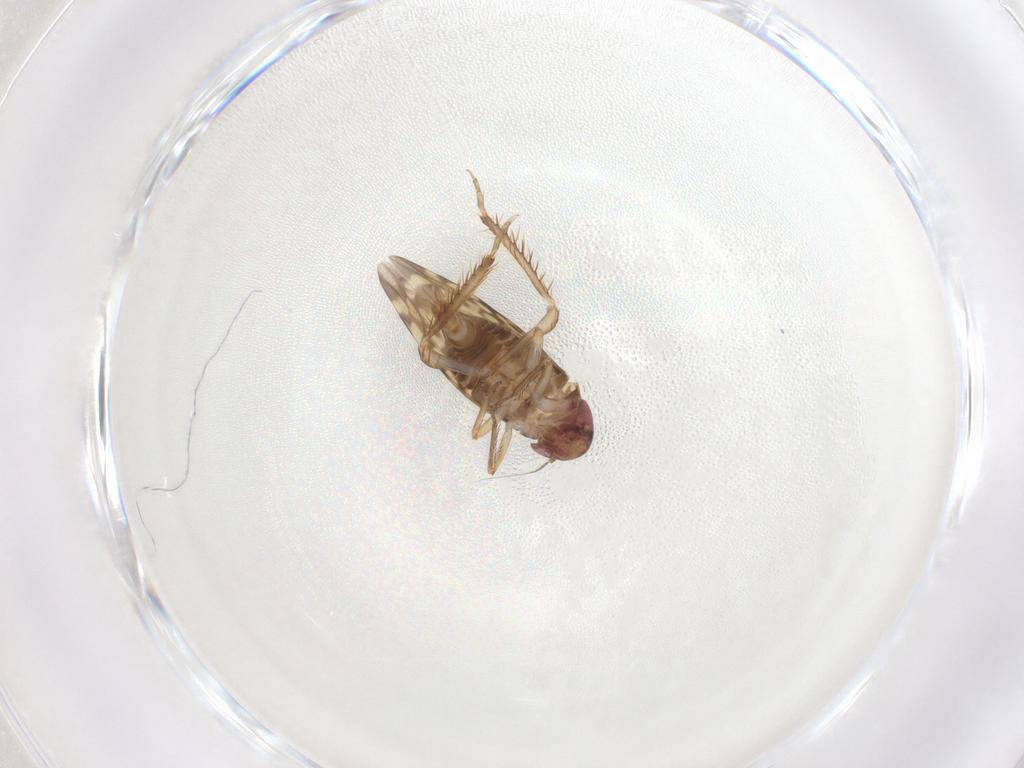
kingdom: Animalia
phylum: Arthropoda
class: Insecta
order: Hemiptera
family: Cicadellidae
